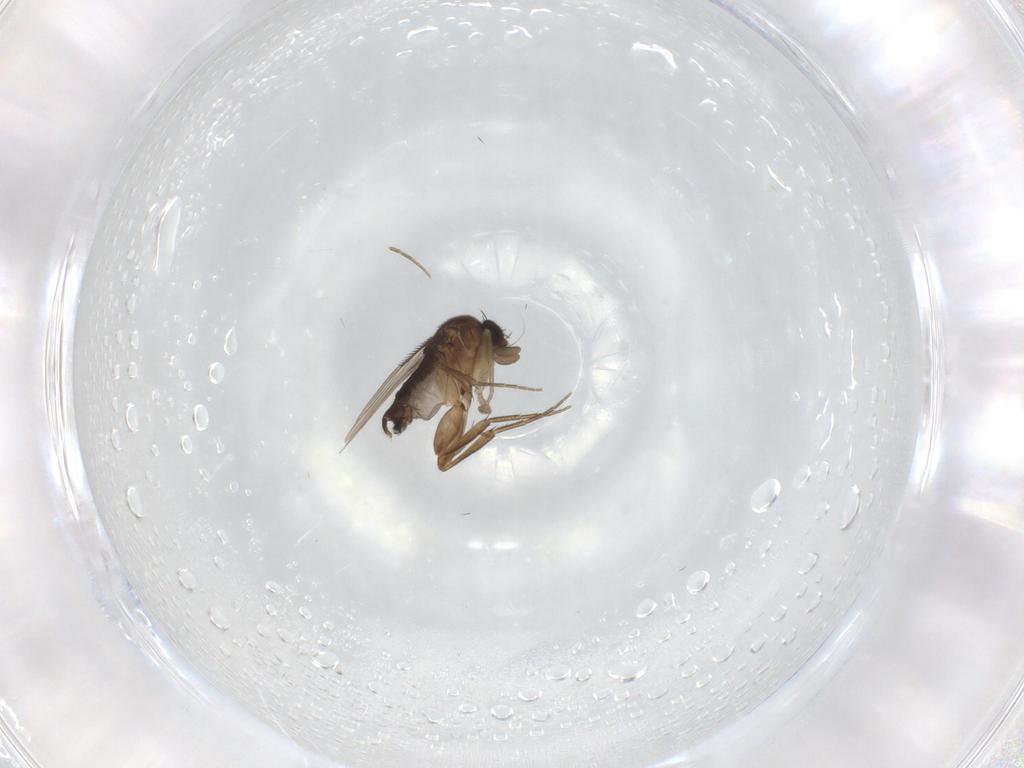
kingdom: Animalia
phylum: Arthropoda
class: Insecta
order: Diptera
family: Phoridae
